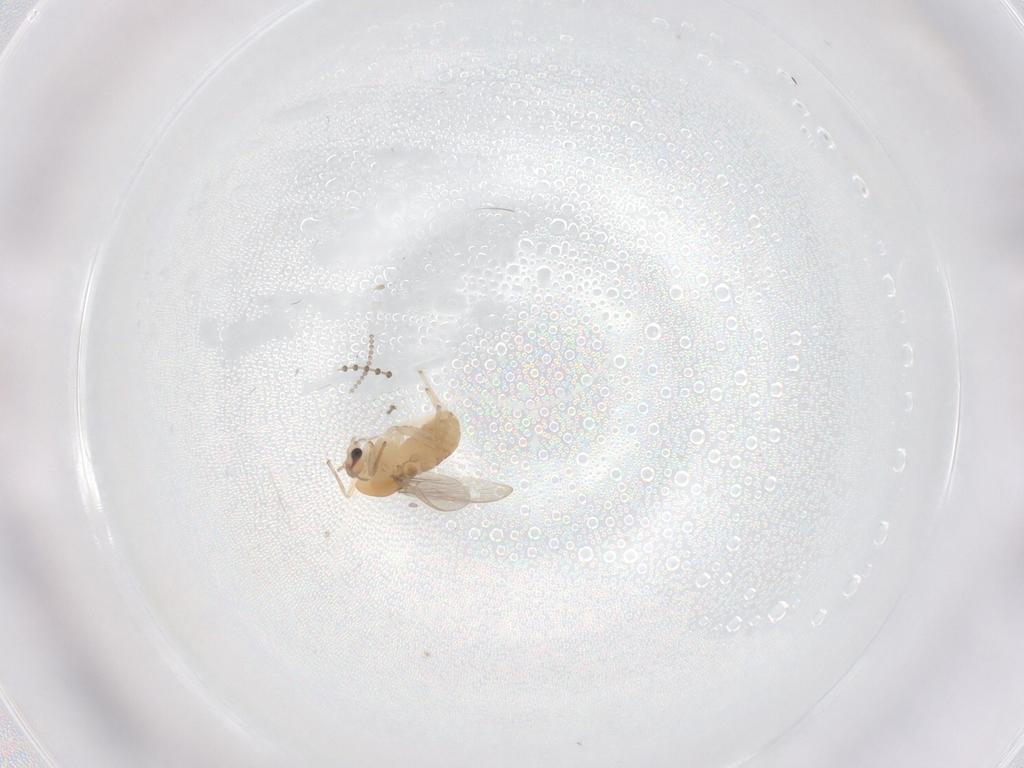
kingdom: Animalia
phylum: Arthropoda
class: Insecta
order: Diptera
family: Chironomidae
